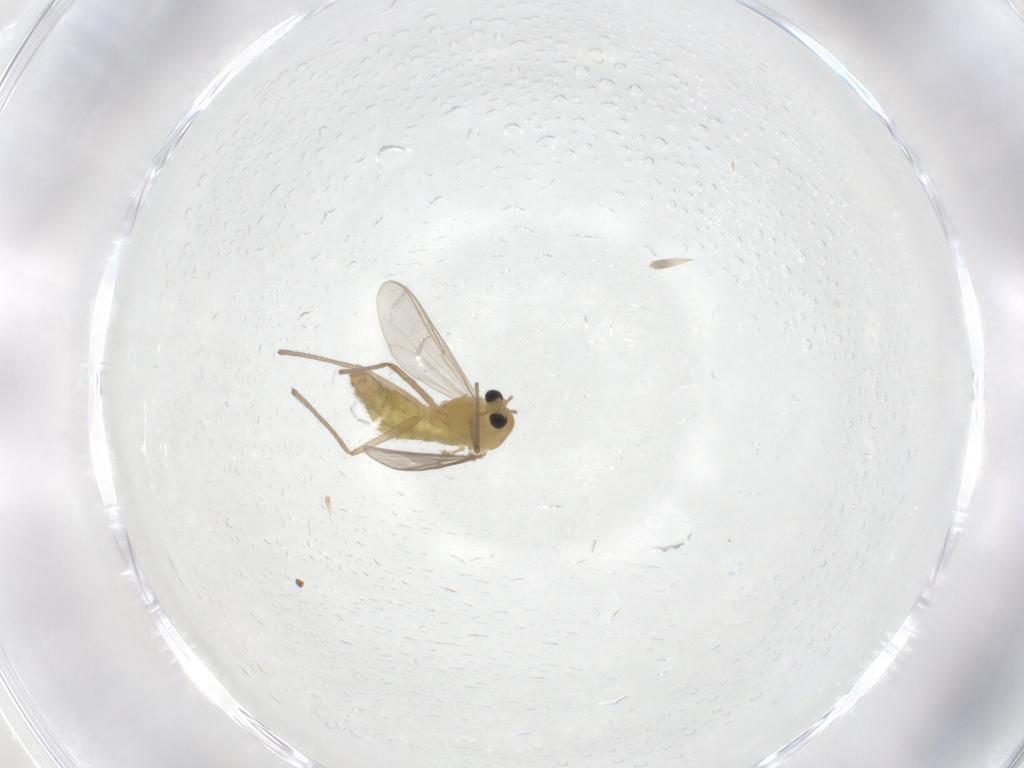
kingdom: Animalia
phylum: Arthropoda
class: Insecta
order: Diptera
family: Chironomidae
